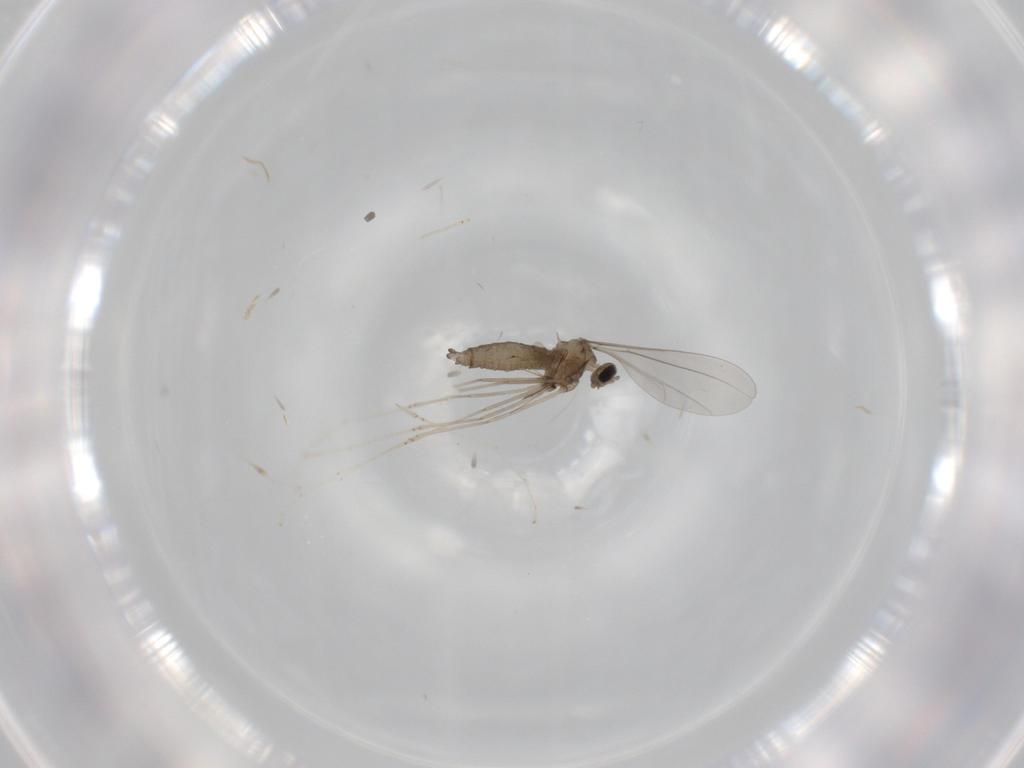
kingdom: Animalia
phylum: Arthropoda
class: Insecta
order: Diptera
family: Cecidomyiidae
